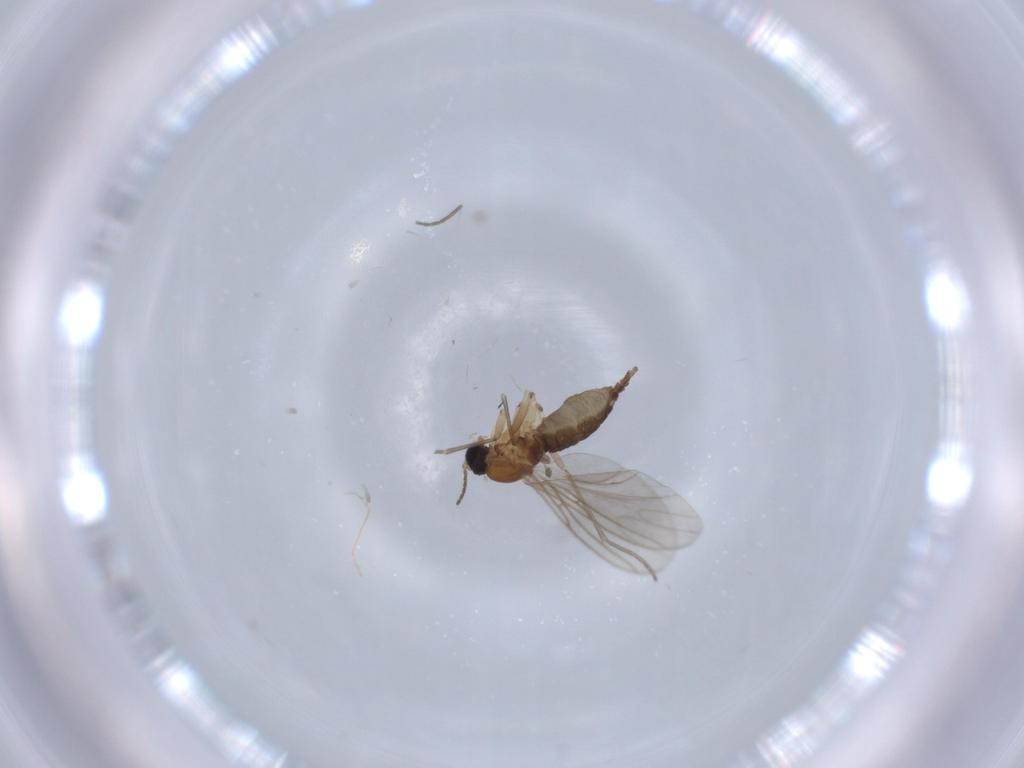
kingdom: Animalia
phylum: Arthropoda
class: Insecta
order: Diptera
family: Sciaridae
